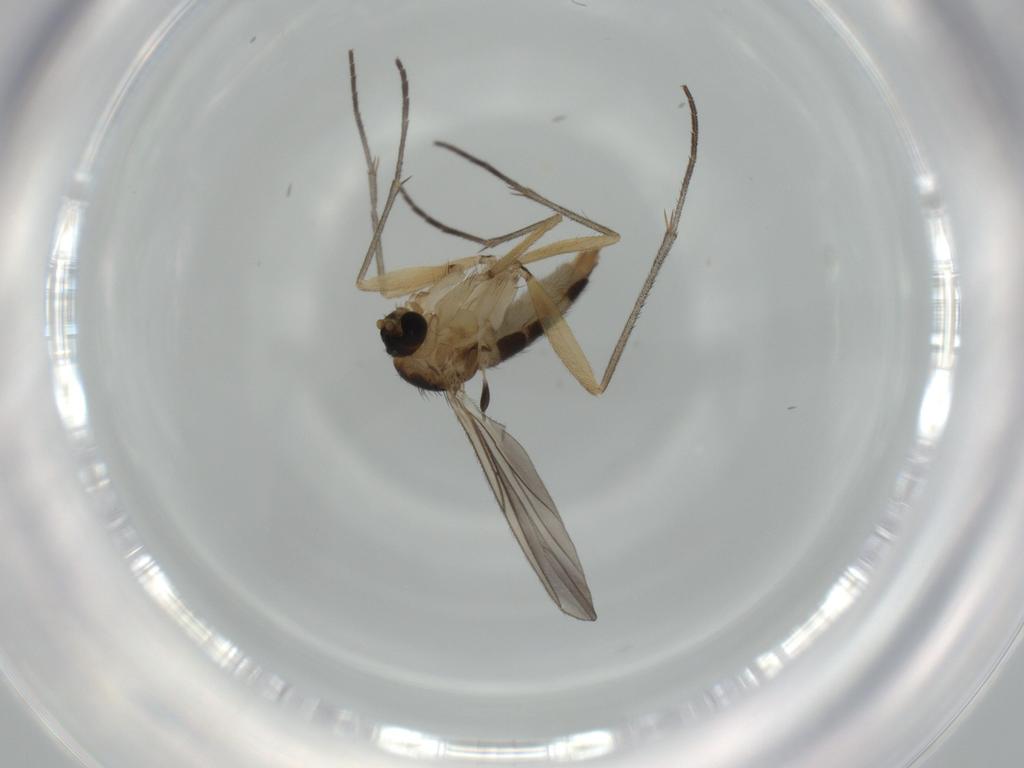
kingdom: Animalia
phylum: Arthropoda
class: Insecta
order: Diptera
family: Sciaridae
